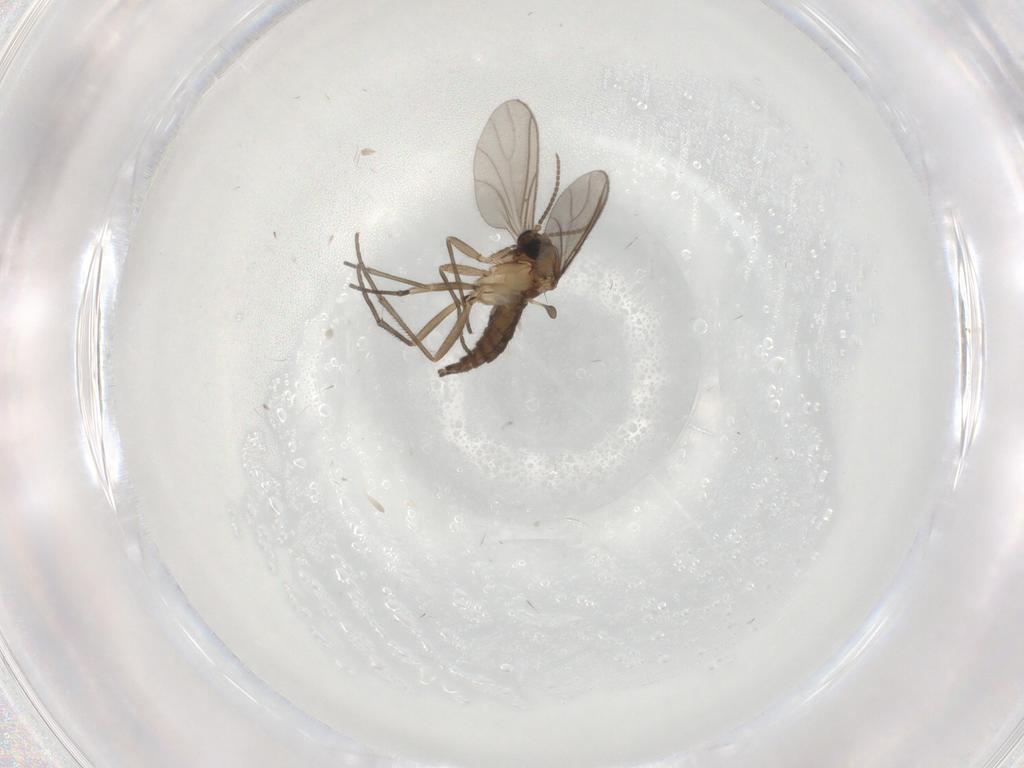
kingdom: Animalia
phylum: Arthropoda
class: Insecta
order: Diptera
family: Sciaridae
